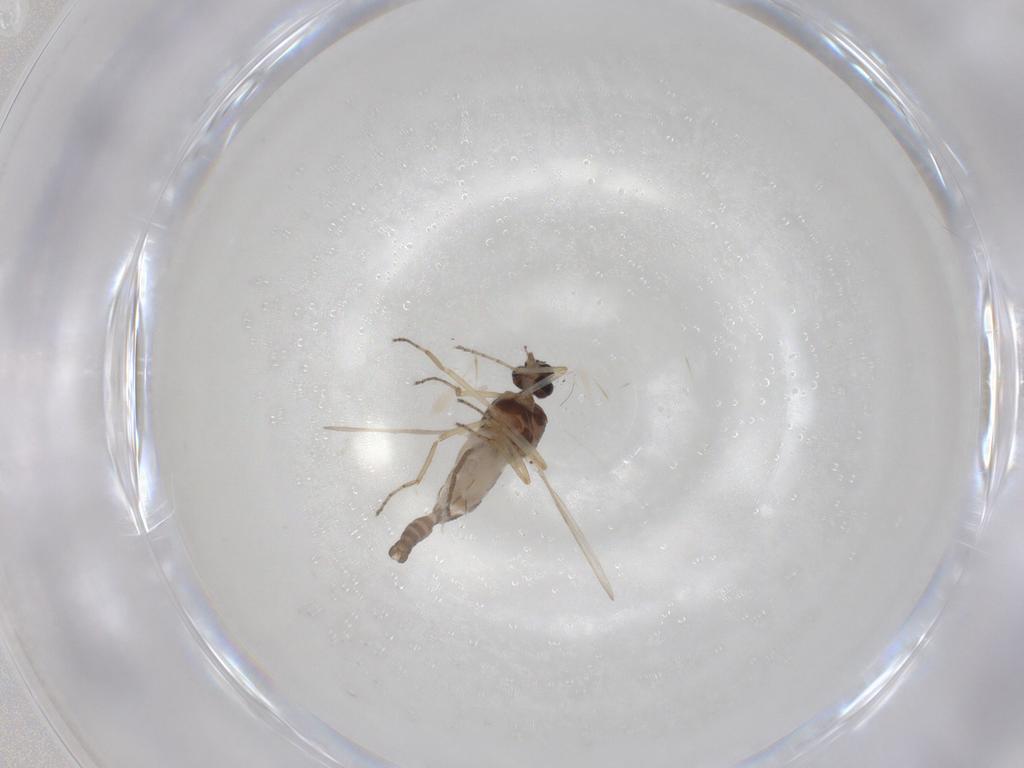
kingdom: Animalia
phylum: Arthropoda
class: Insecta
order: Diptera
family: Ceratopogonidae
